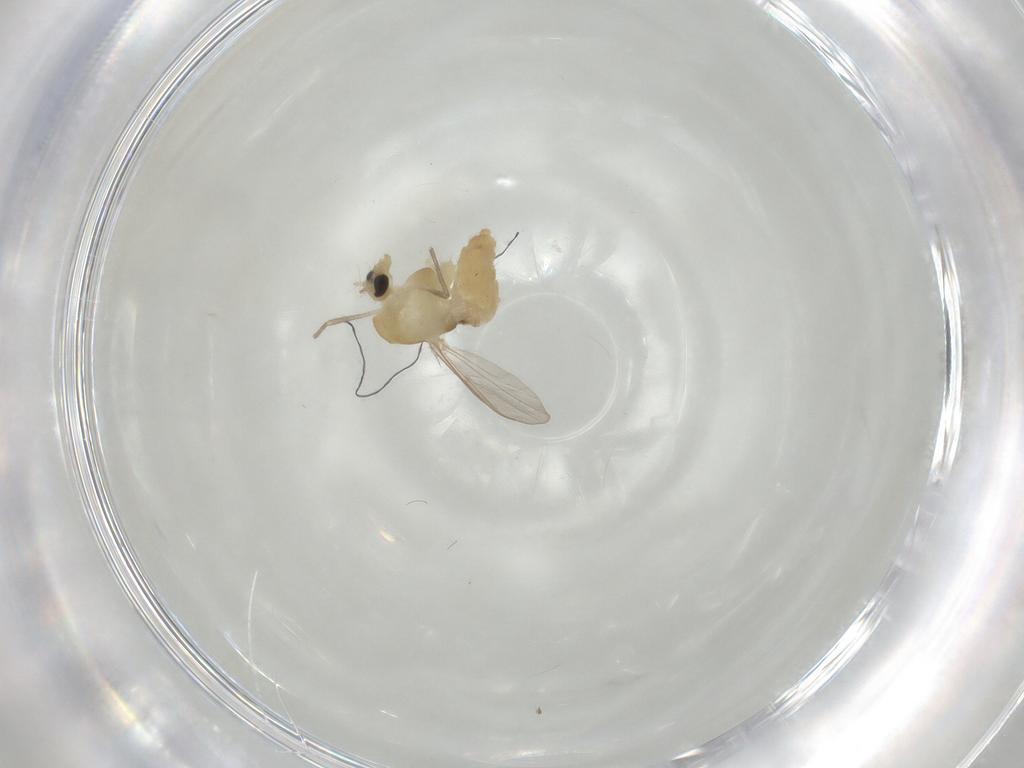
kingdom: Animalia
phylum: Arthropoda
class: Insecta
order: Diptera
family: Chironomidae
